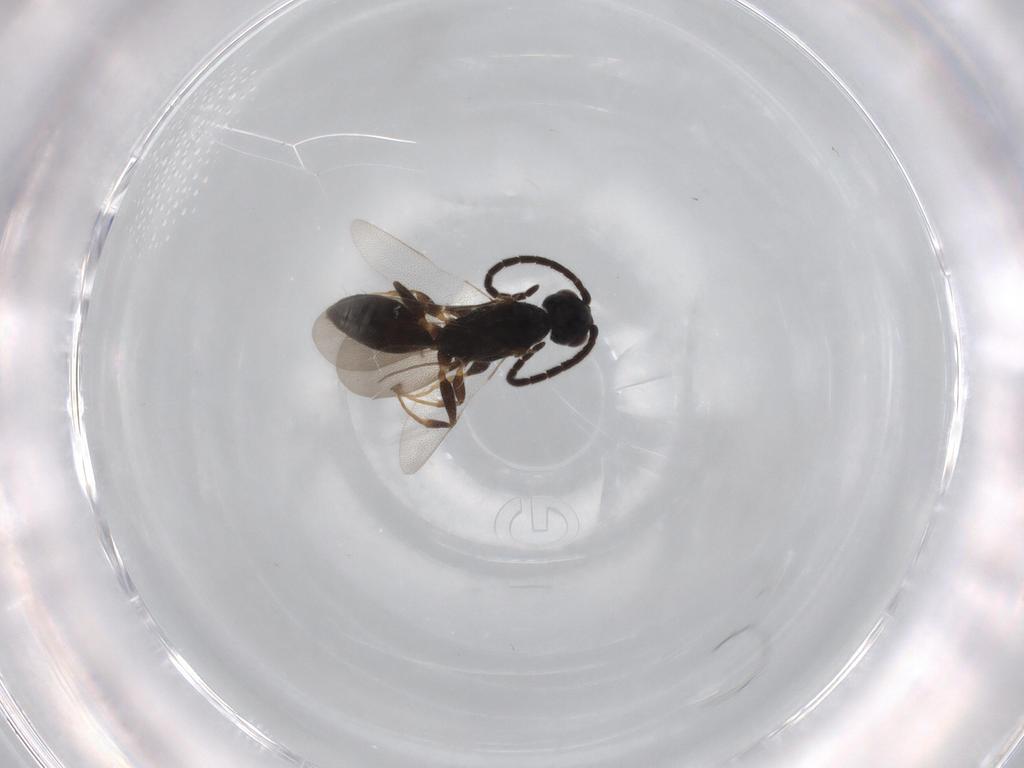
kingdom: Animalia
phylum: Arthropoda
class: Insecta
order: Hymenoptera
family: Bethylidae
